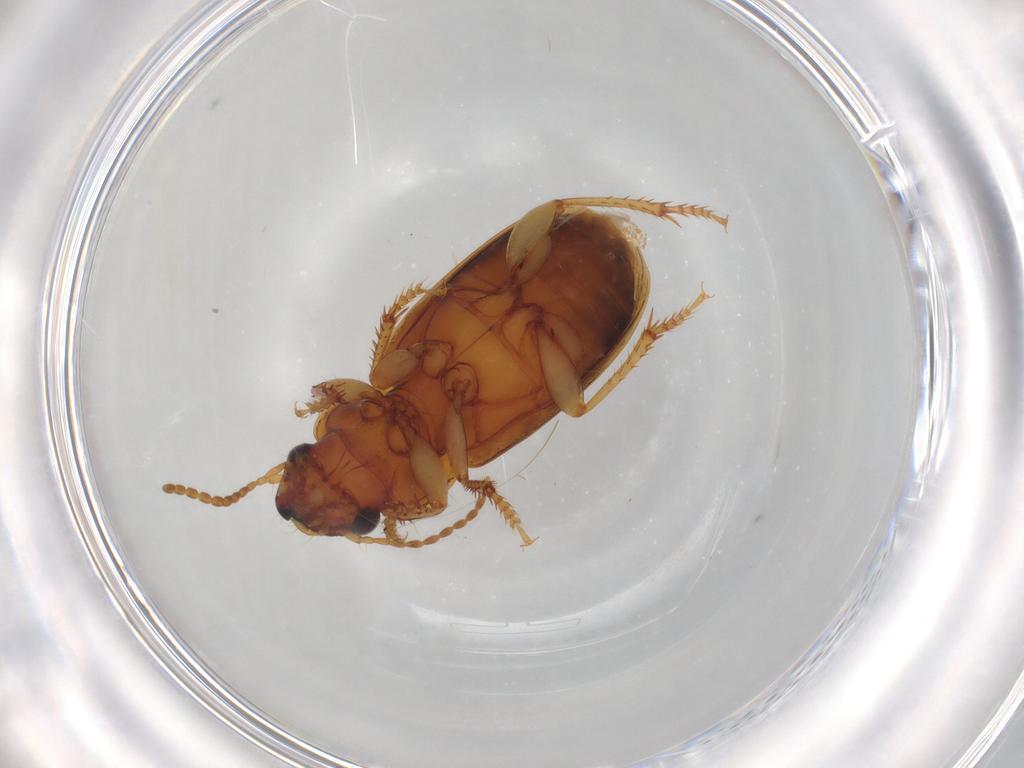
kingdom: Animalia
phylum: Arthropoda
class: Insecta
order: Coleoptera
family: Carabidae
